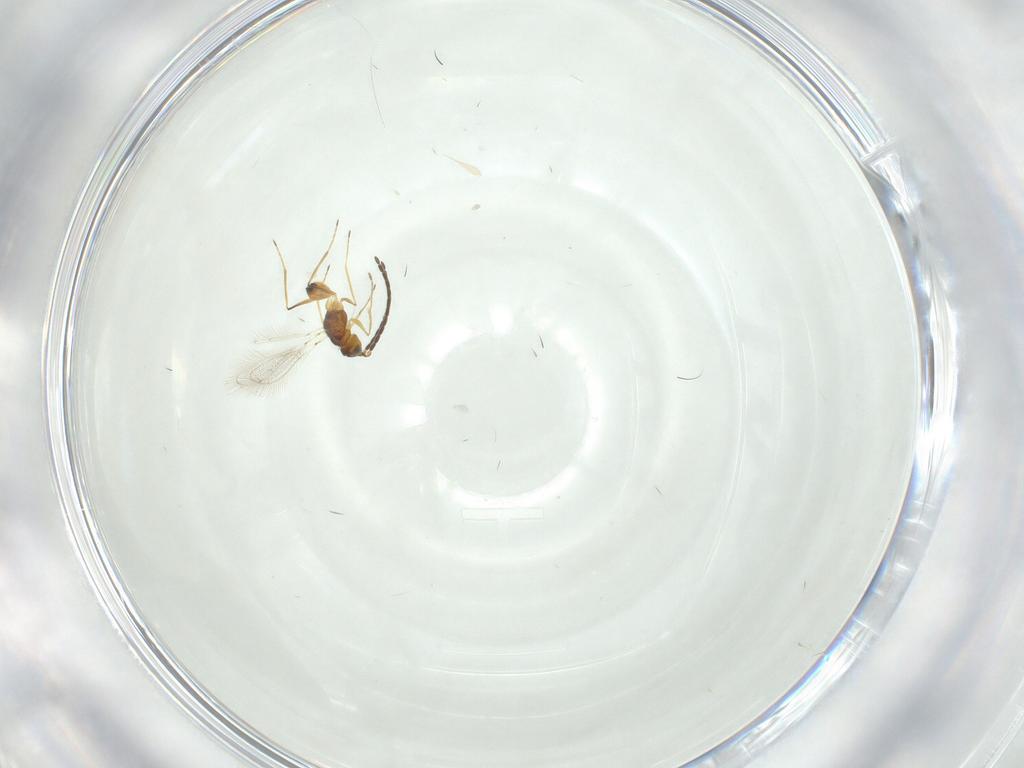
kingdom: Animalia
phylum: Arthropoda
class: Insecta
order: Hymenoptera
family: Mymaridae
